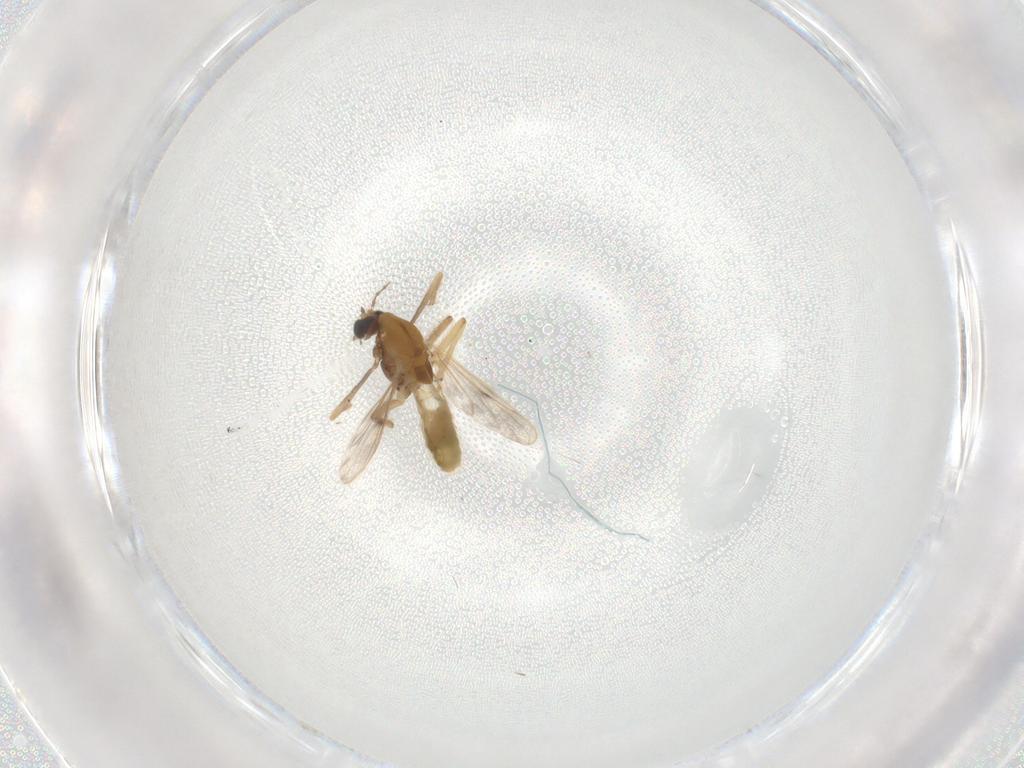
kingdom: Animalia
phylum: Arthropoda
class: Insecta
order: Diptera
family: Chironomidae
